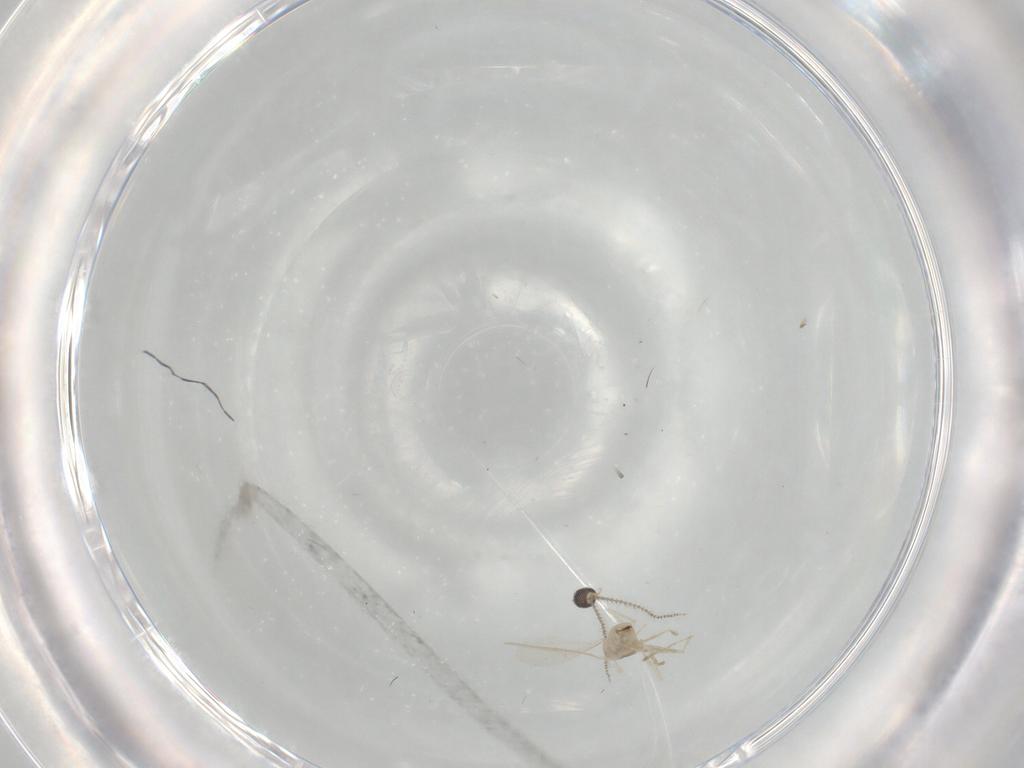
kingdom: Animalia
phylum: Arthropoda
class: Insecta
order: Diptera
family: Cecidomyiidae
